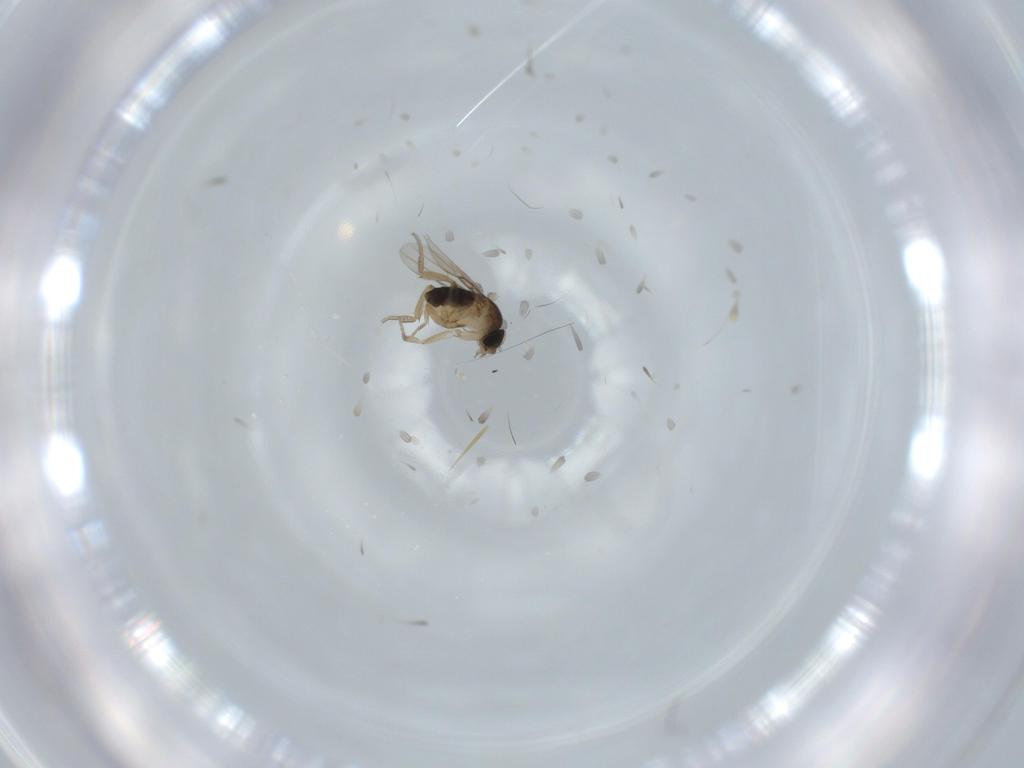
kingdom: Animalia
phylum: Arthropoda
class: Insecta
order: Diptera
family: Phoridae
